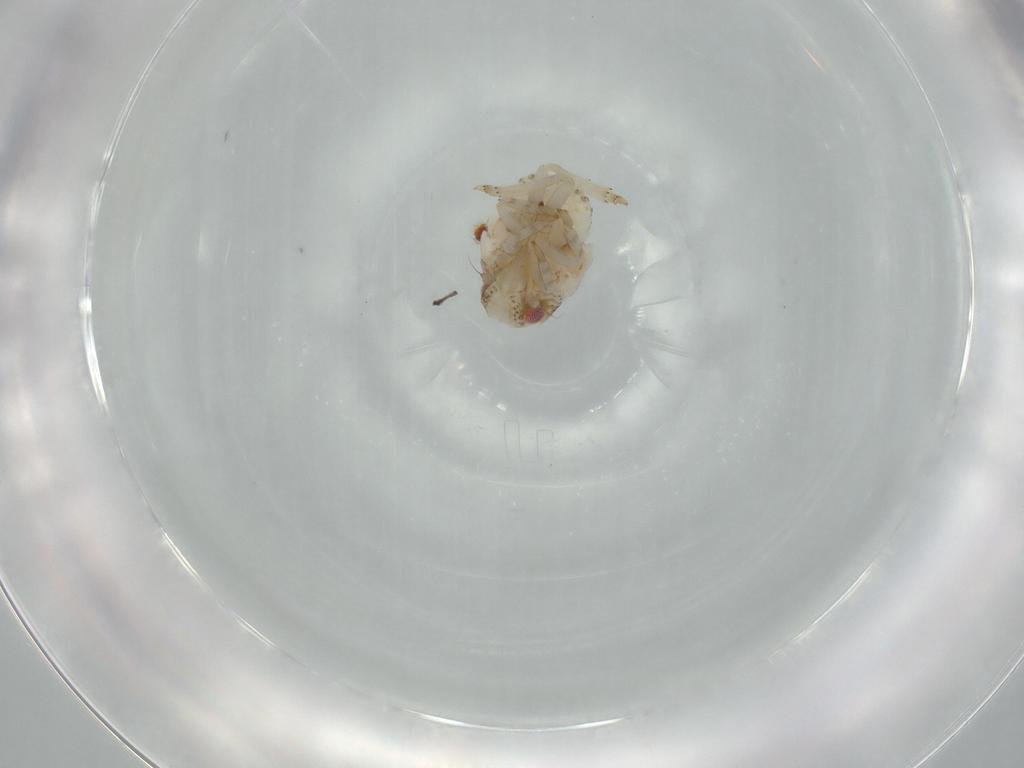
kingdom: Animalia
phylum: Arthropoda
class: Insecta
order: Hemiptera
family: Acanaloniidae
